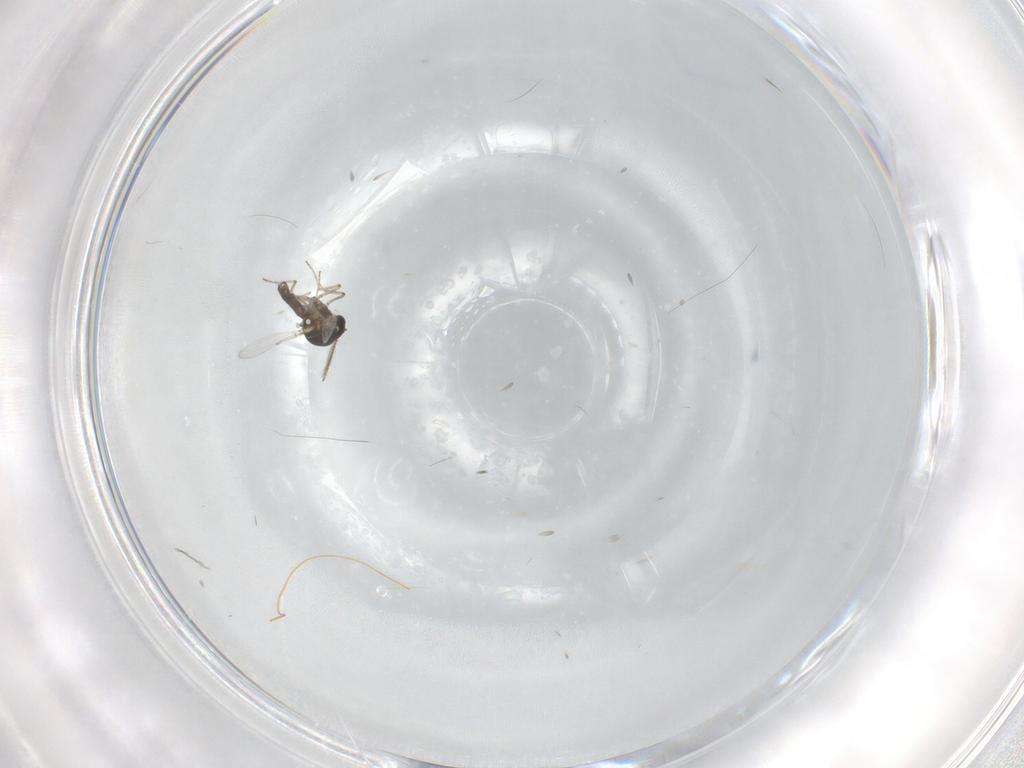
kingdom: Animalia
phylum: Arthropoda
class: Insecta
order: Diptera
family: Ceratopogonidae
